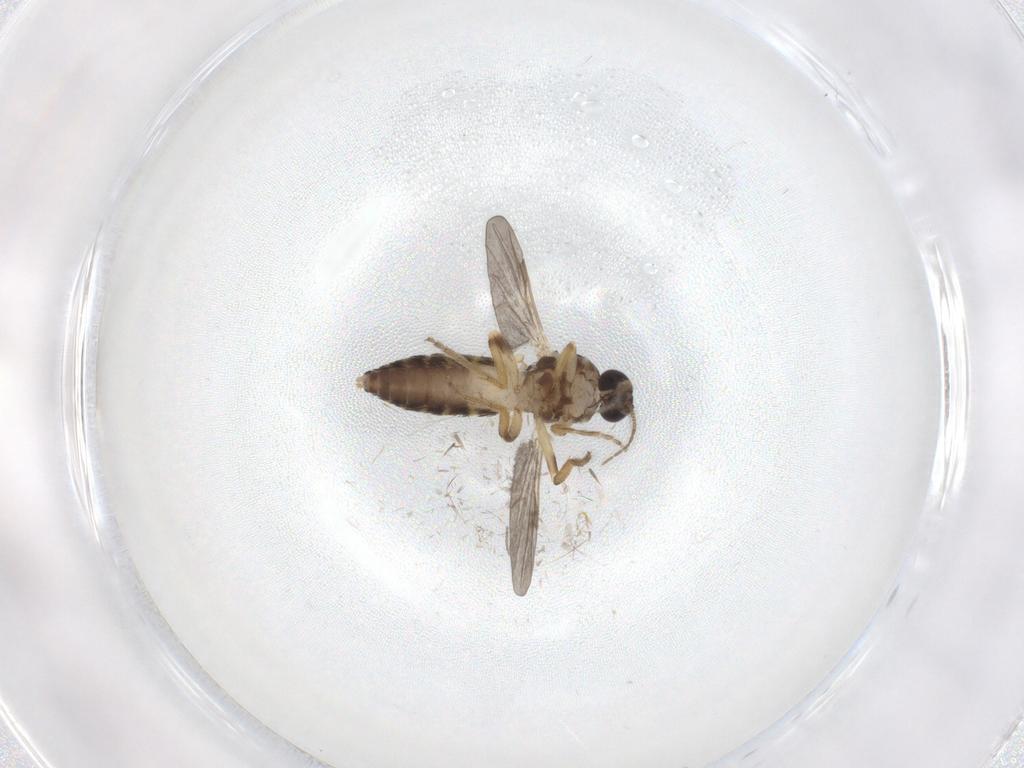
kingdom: Animalia
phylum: Arthropoda
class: Insecta
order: Diptera
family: Ceratopogonidae
